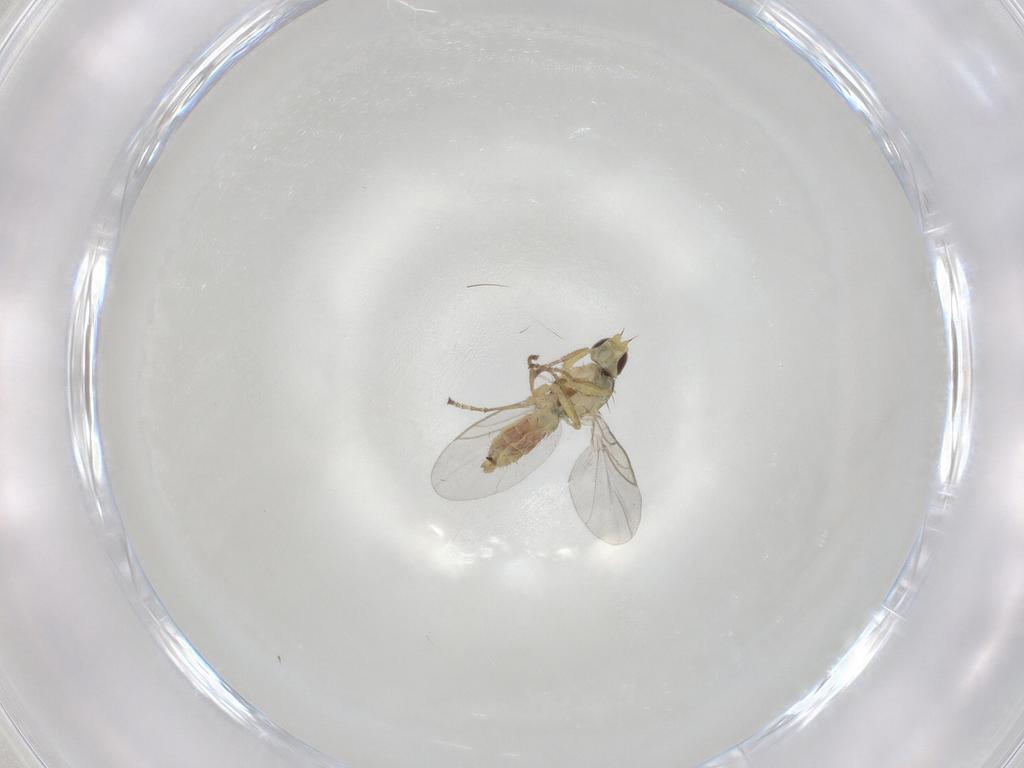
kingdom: Animalia
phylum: Arthropoda
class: Insecta
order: Diptera
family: Agromyzidae
